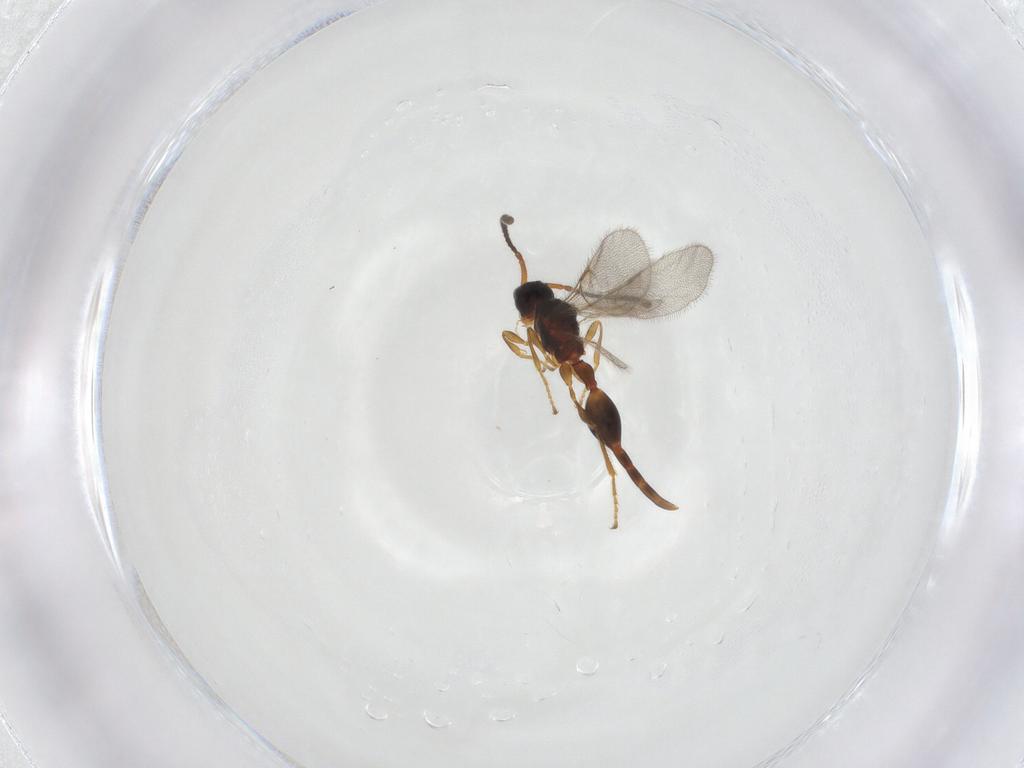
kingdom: Animalia
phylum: Arthropoda
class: Insecta
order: Hymenoptera
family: Diapriidae
